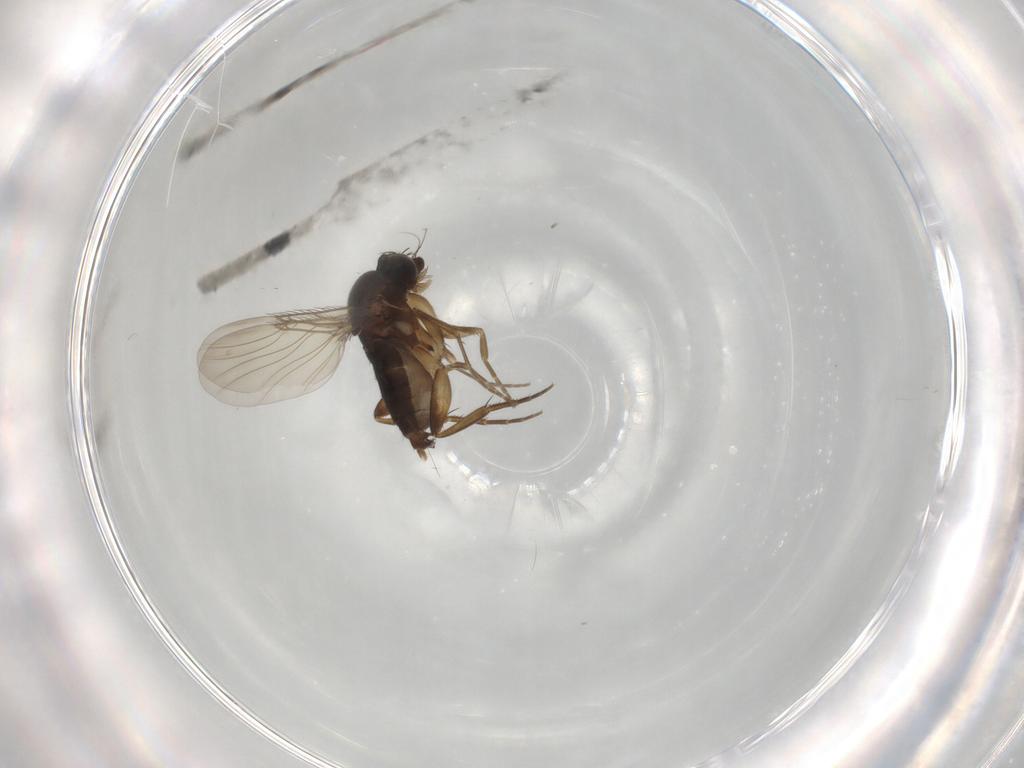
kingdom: Animalia
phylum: Arthropoda
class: Insecta
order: Diptera
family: Phoridae
